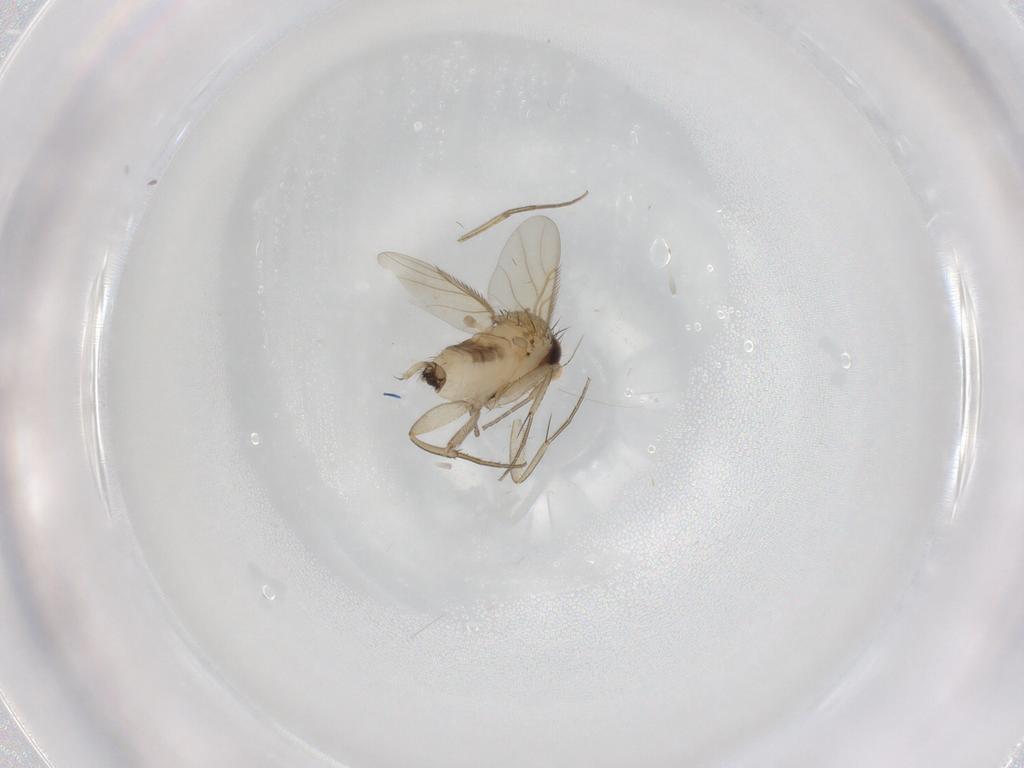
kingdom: Animalia
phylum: Arthropoda
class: Insecta
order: Diptera
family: Phoridae
